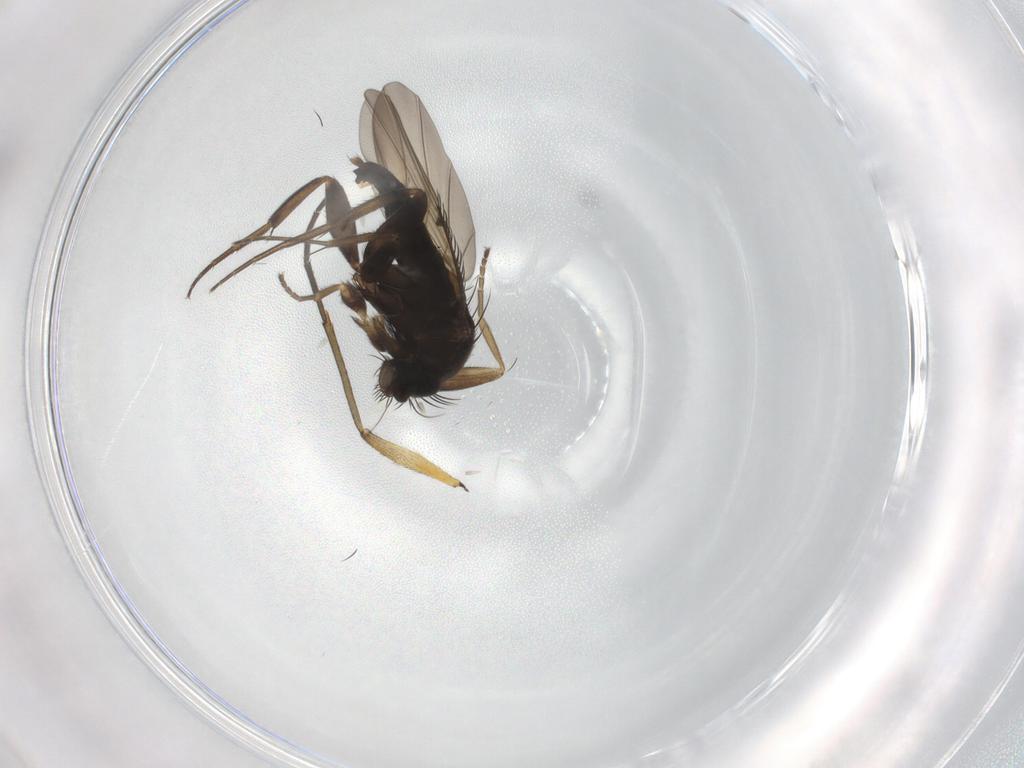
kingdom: Animalia
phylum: Arthropoda
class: Insecta
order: Diptera
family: Phoridae
